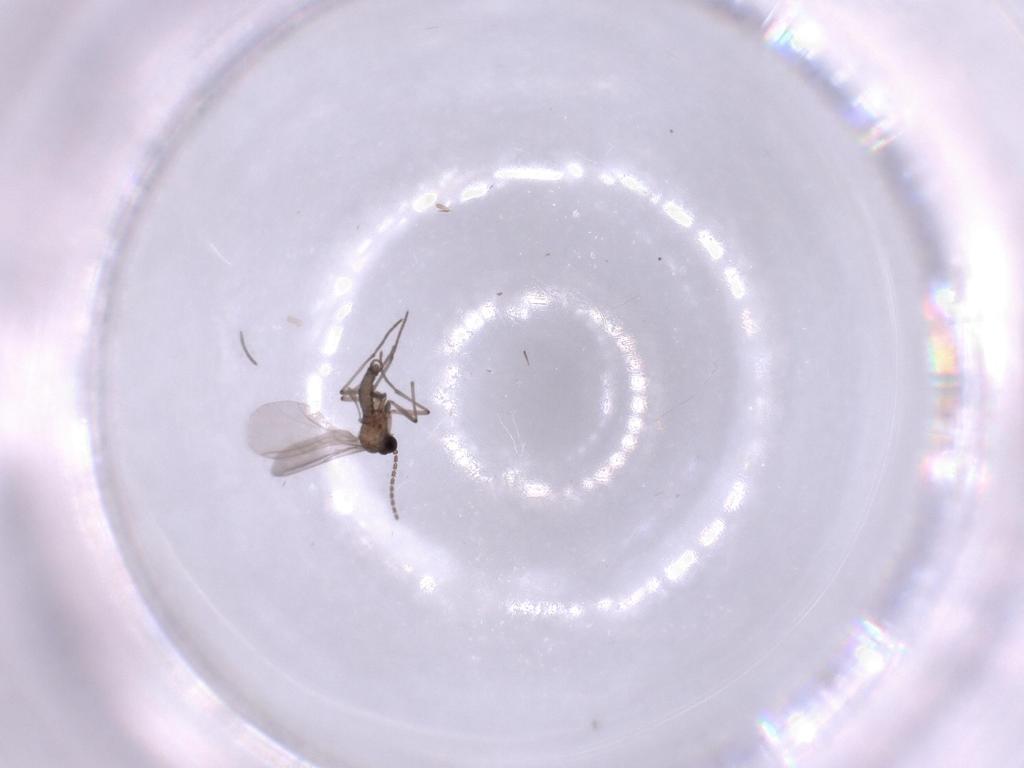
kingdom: Animalia
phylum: Arthropoda
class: Insecta
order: Diptera
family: Sciaridae
